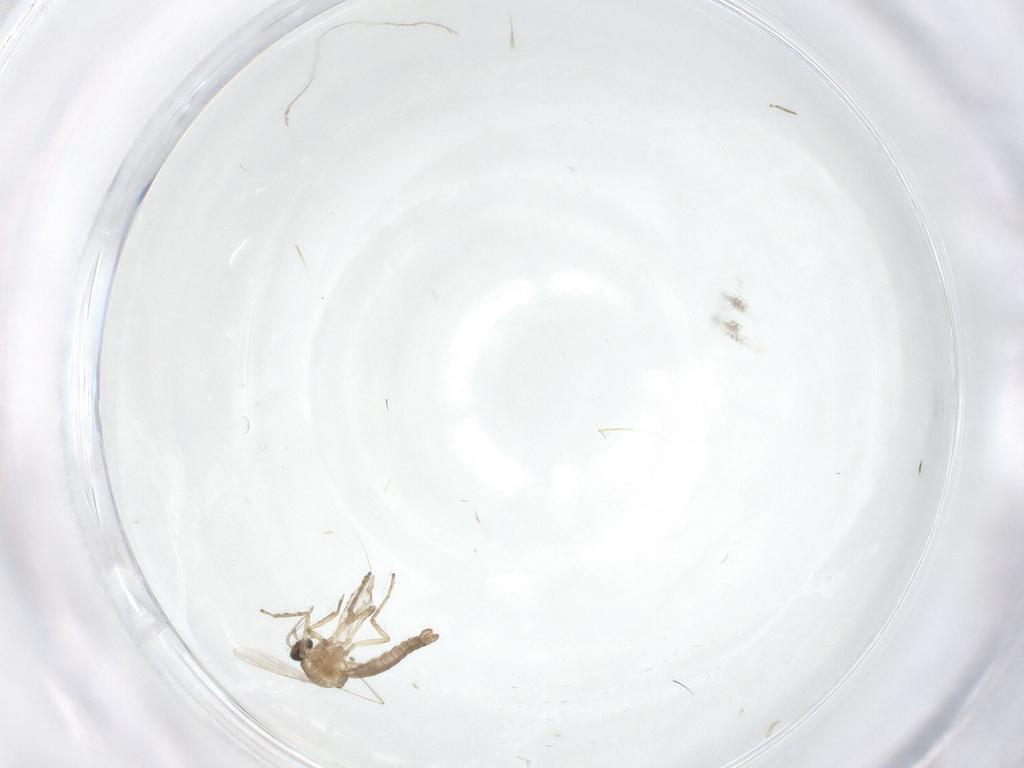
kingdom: Animalia
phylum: Arthropoda
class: Insecta
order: Diptera
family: Ceratopogonidae
